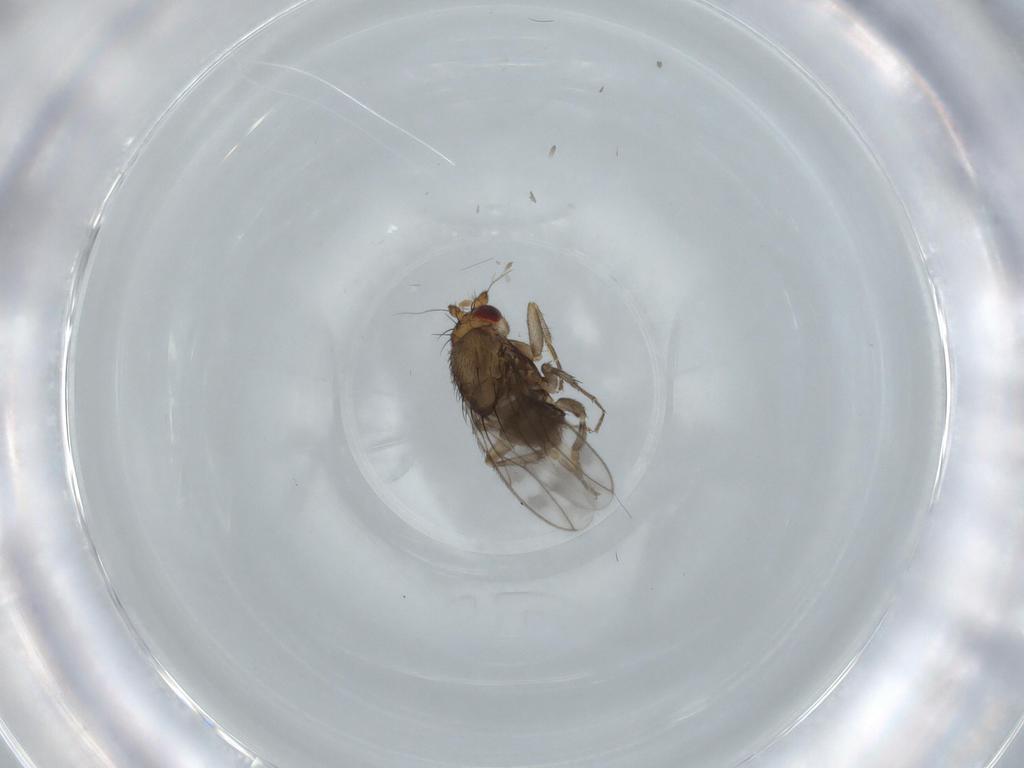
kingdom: Animalia
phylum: Arthropoda
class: Insecta
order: Diptera
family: Sphaeroceridae
